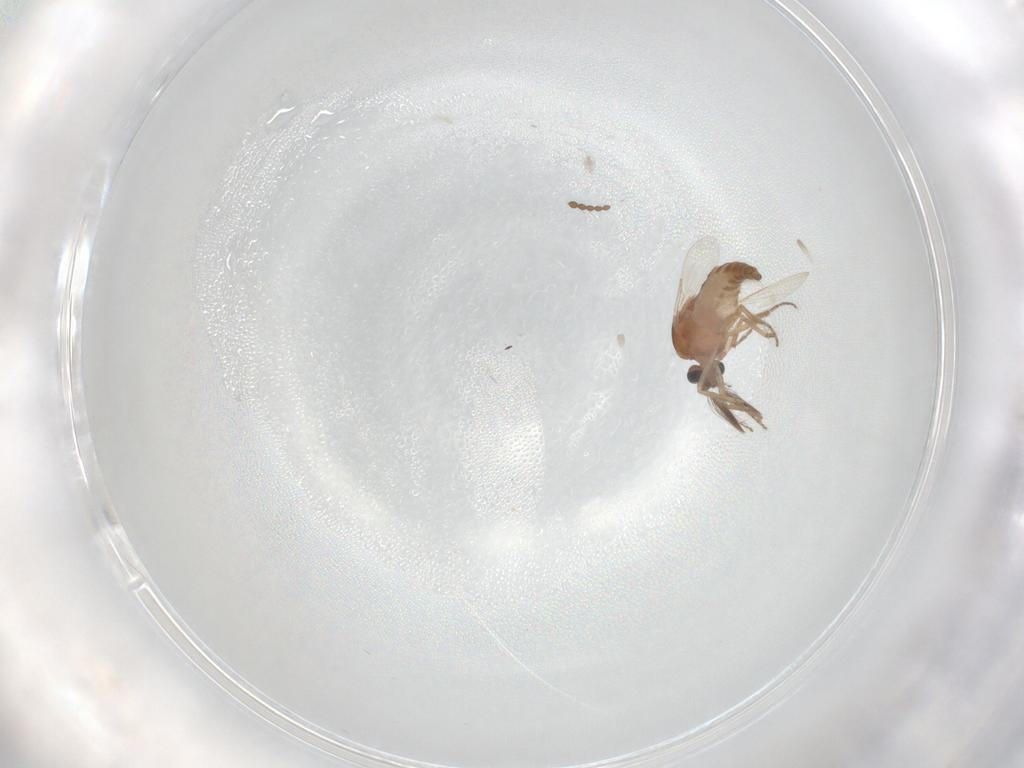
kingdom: Animalia
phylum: Arthropoda
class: Insecta
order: Diptera
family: Ceratopogonidae
